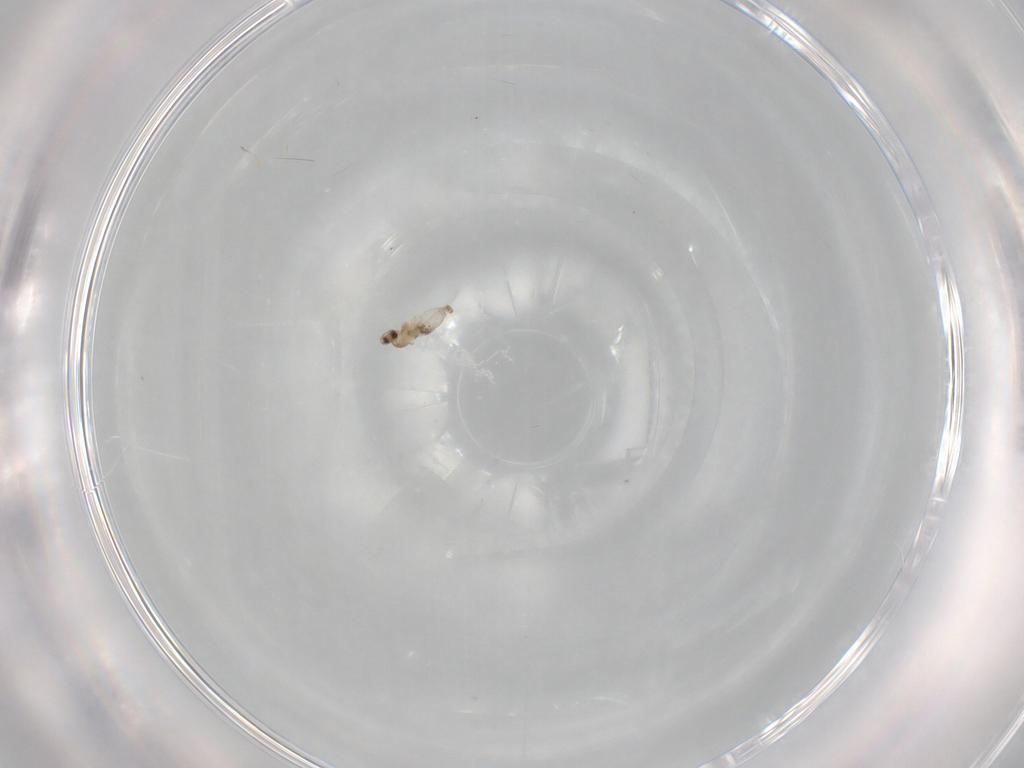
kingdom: Animalia
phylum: Arthropoda
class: Insecta
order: Diptera
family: Cecidomyiidae
